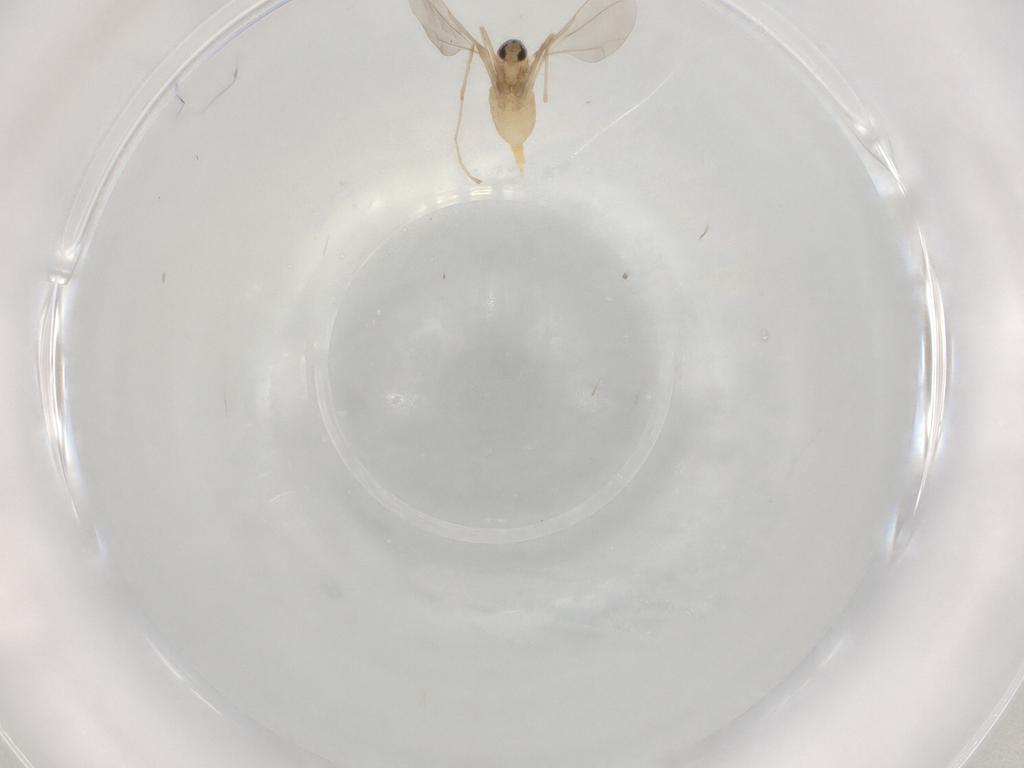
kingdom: Animalia
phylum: Arthropoda
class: Insecta
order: Diptera
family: Cecidomyiidae
